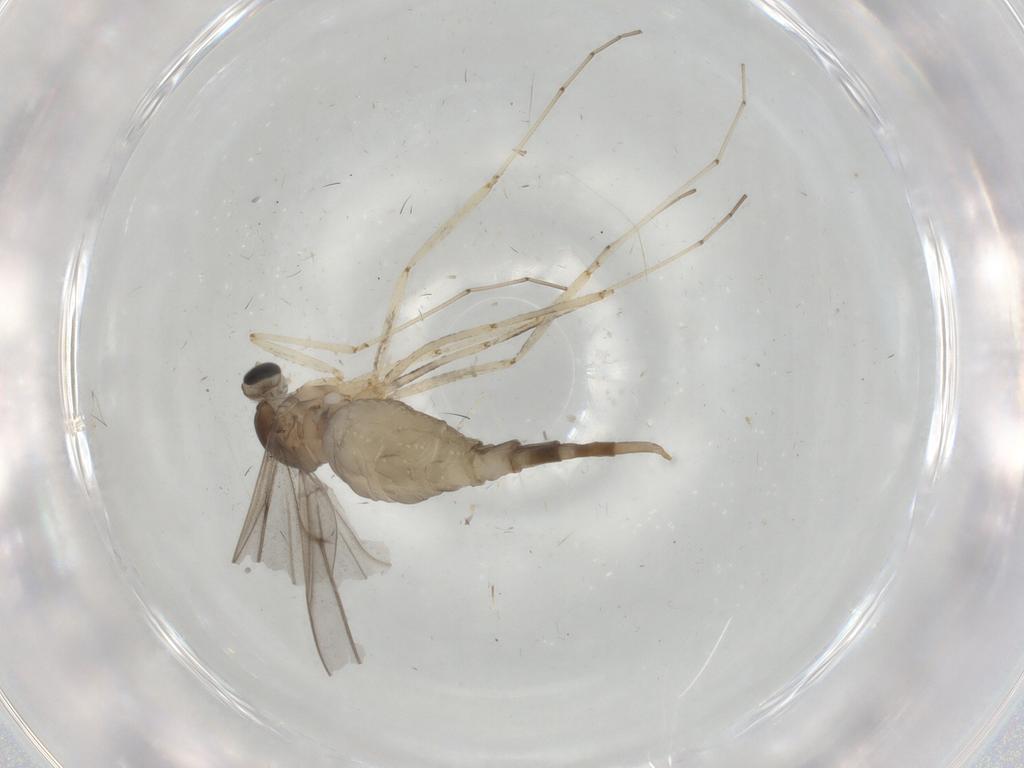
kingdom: Animalia
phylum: Arthropoda
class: Insecta
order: Diptera
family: Cecidomyiidae
